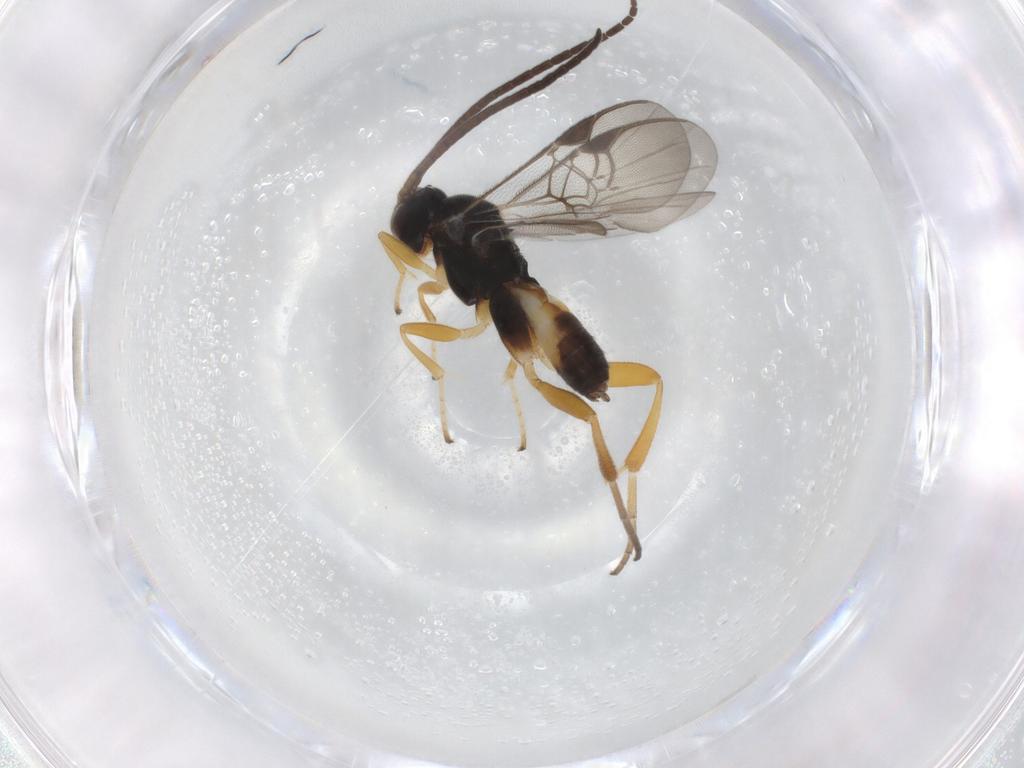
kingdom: Animalia
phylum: Arthropoda
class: Insecta
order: Hymenoptera
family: Braconidae
